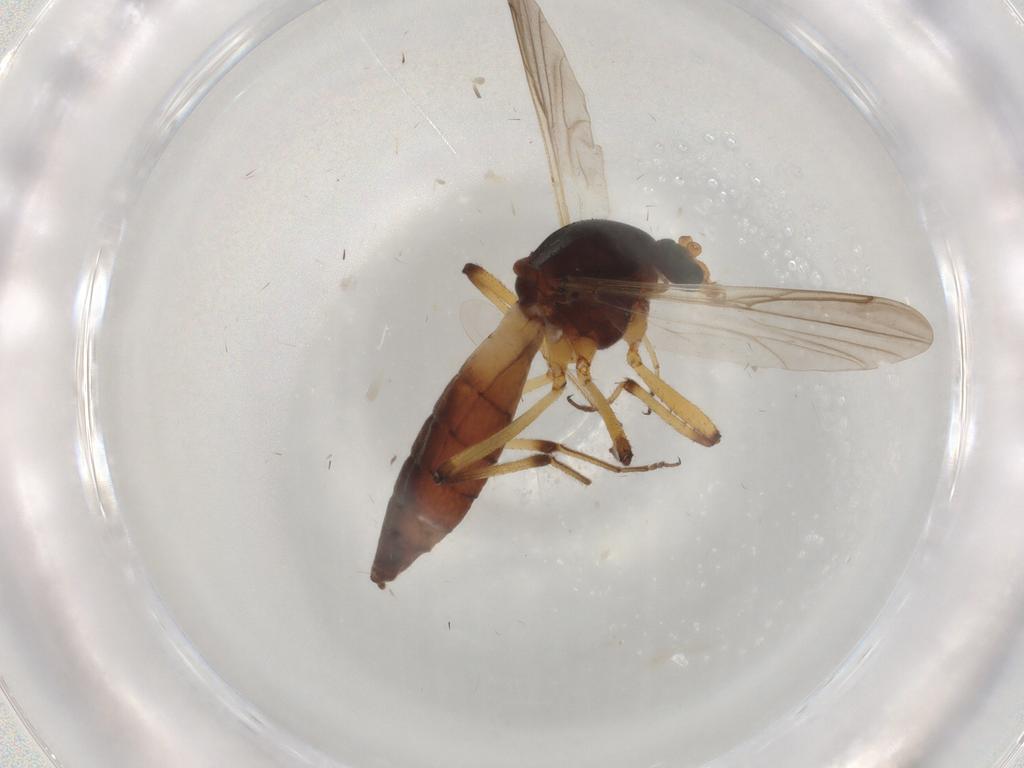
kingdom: Animalia
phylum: Arthropoda
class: Insecta
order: Diptera
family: Ceratopogonidae
